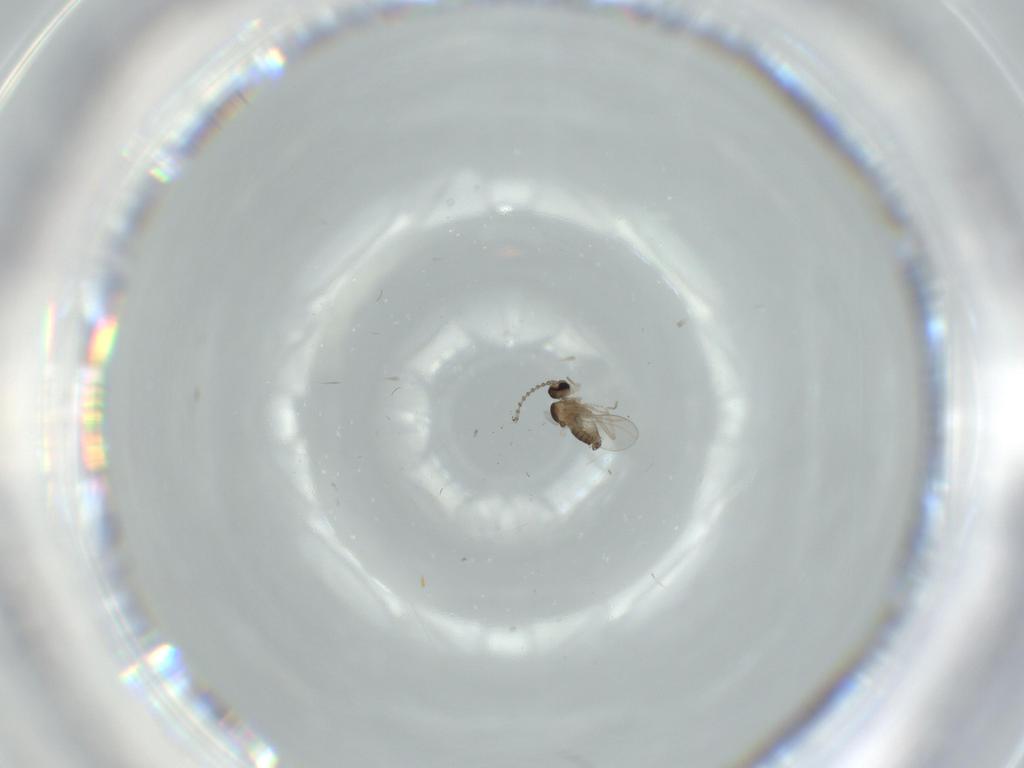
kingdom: Animalia
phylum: Arthropoda
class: Insecta
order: Diptera
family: Cecidomyiidae
